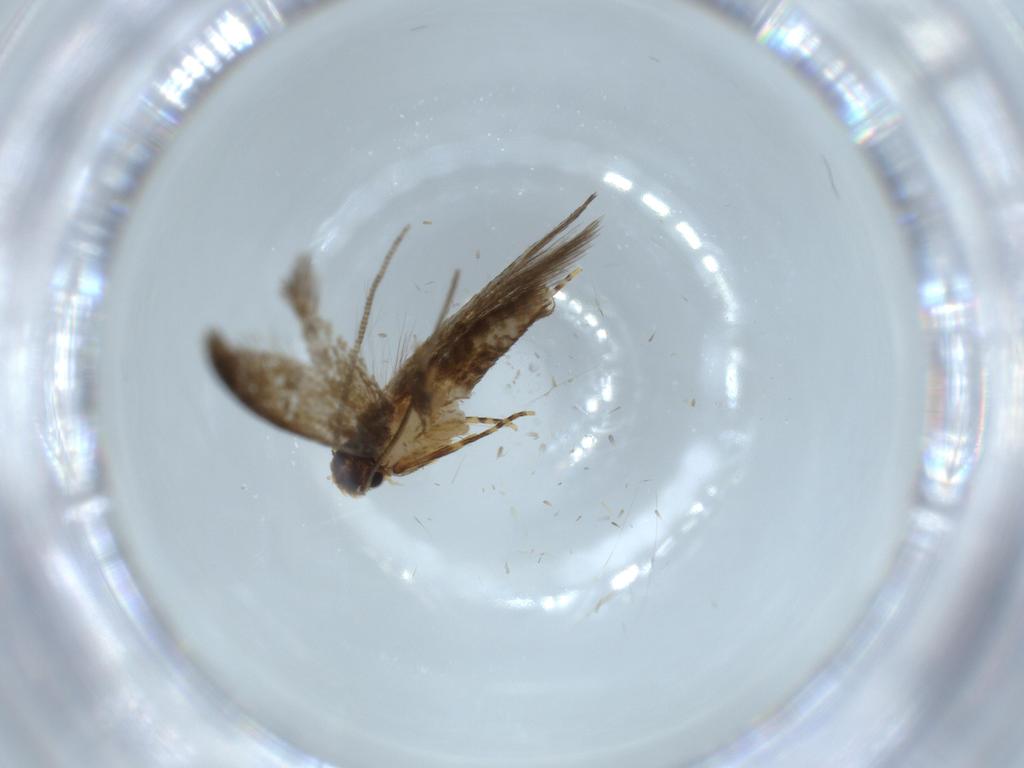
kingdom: Animalia
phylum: Arthropoda
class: Insecta
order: Lepidoptera
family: Tineidae
